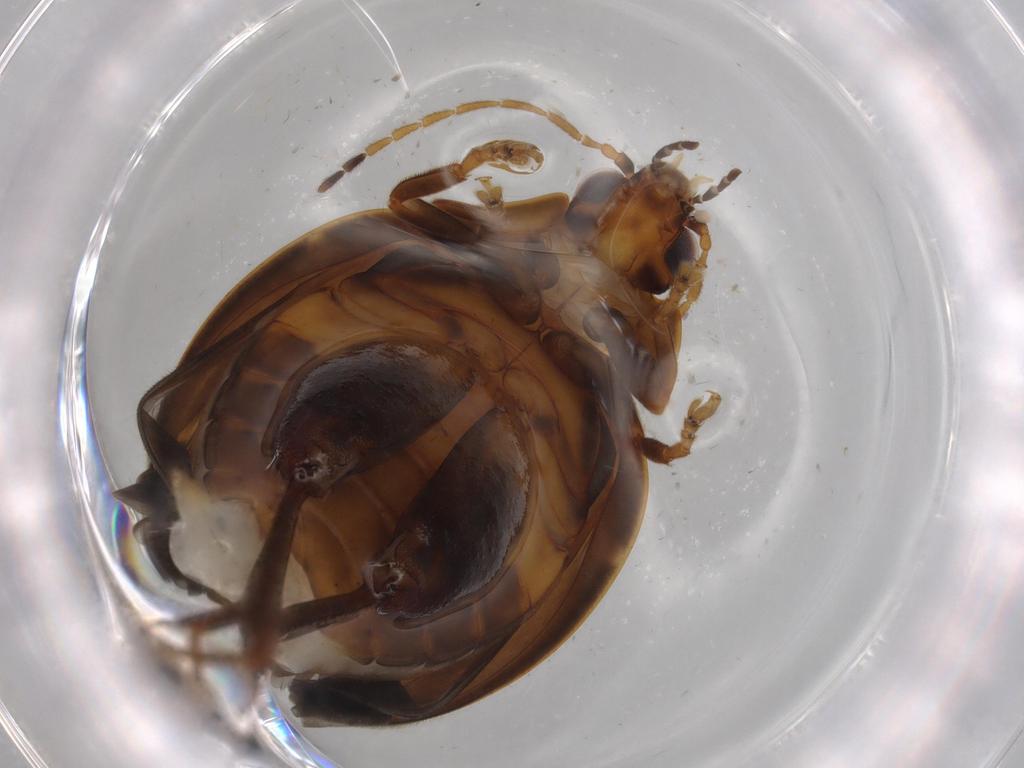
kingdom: Animalia
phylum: Arthropoda
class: Insecta
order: Coleoptera
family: Scirtidae
